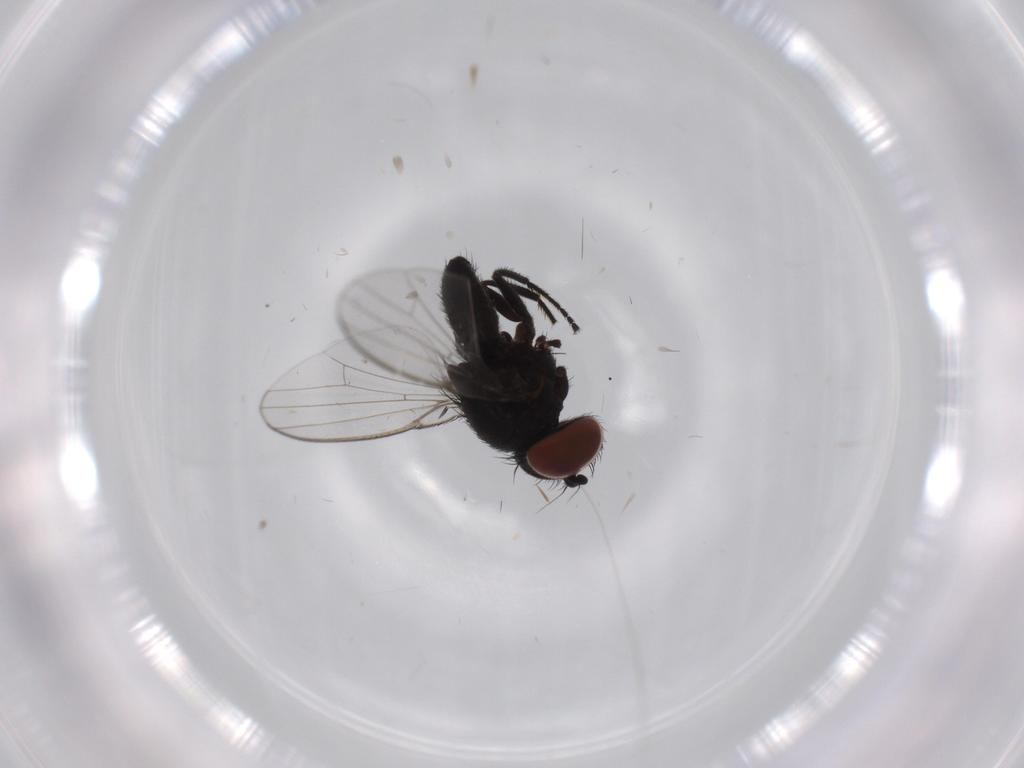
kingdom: Animalia
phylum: Arthropoda
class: Insecta
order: Diptera
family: Milichiidae
